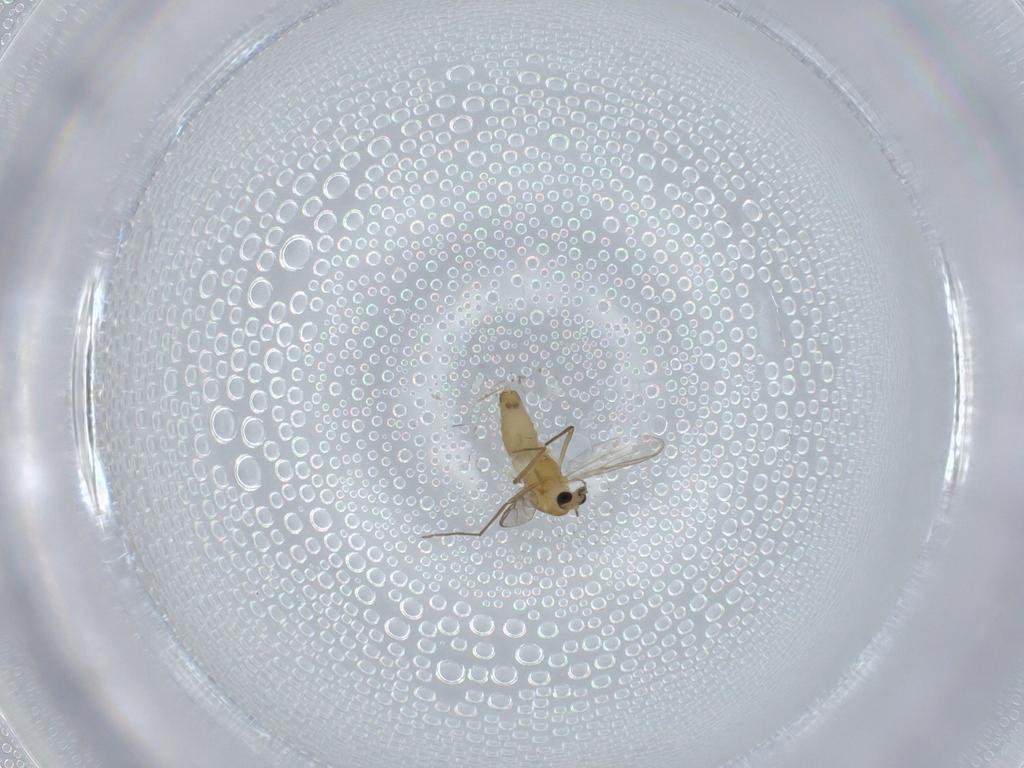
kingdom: Animalia
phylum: Arthropoda
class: Insecta
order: Diptera
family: Chironomidae
